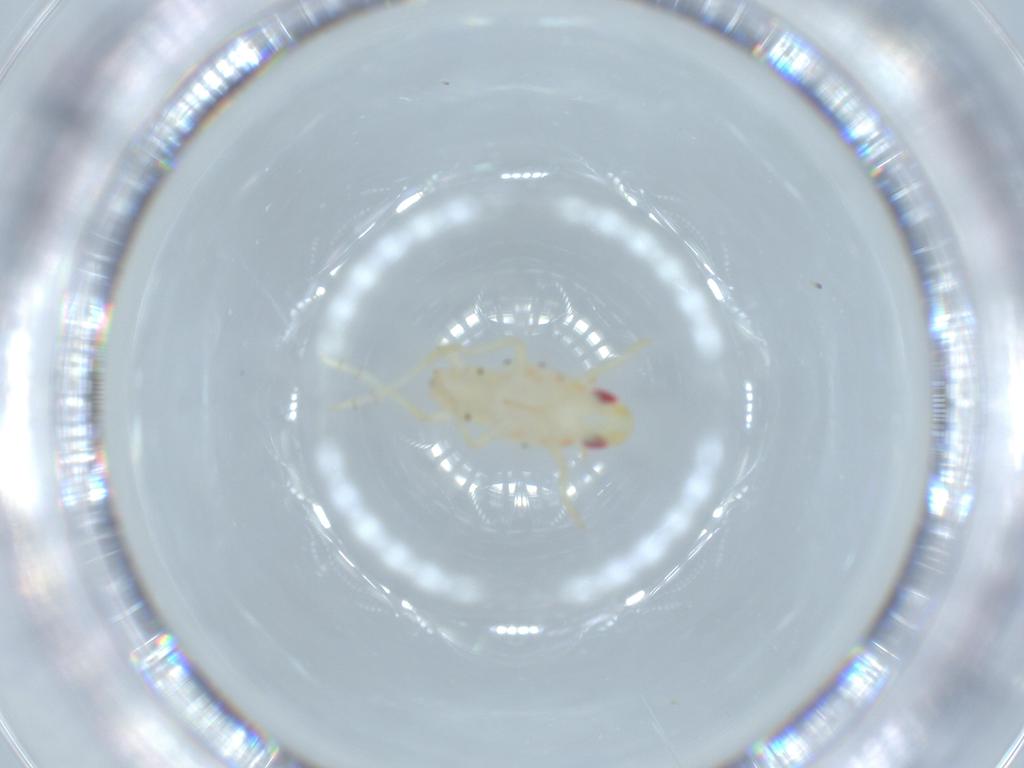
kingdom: Animalia
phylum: Arthropoda
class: Insecta
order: Hemiptera
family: Tropiduchidae
